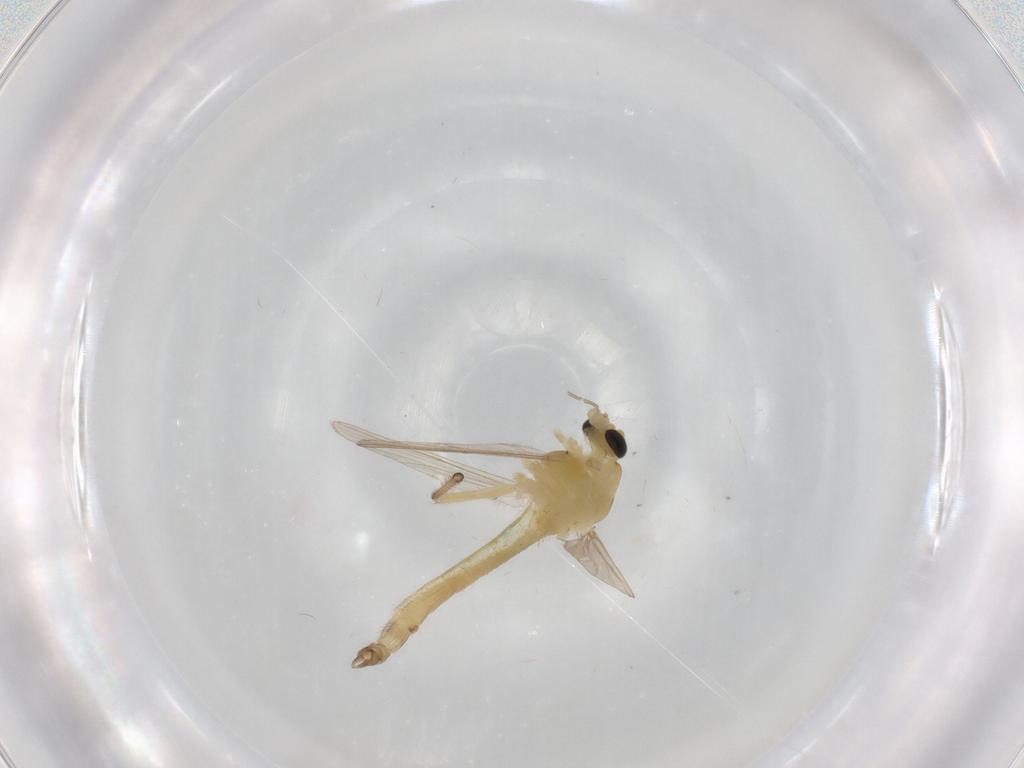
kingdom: Animalia
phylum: Arthropoda
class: Insecta
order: Diptera
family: Chironomidae
